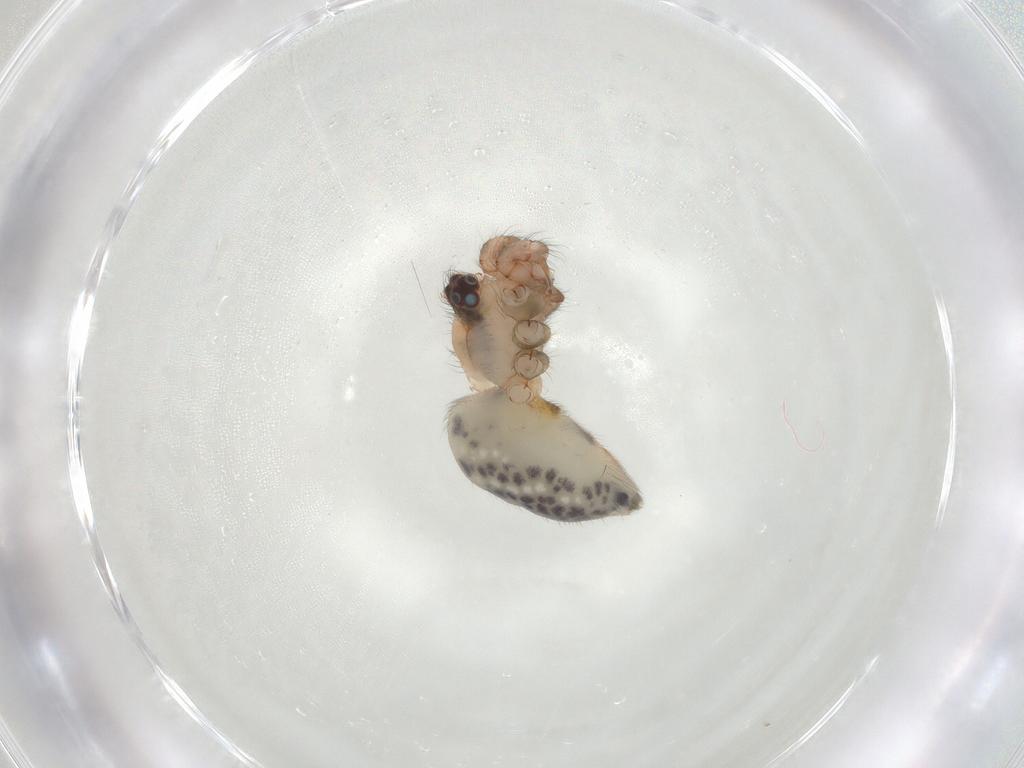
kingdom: Animalia
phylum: Arthropoda
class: Arachnida
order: Araneae
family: Pholcidae
